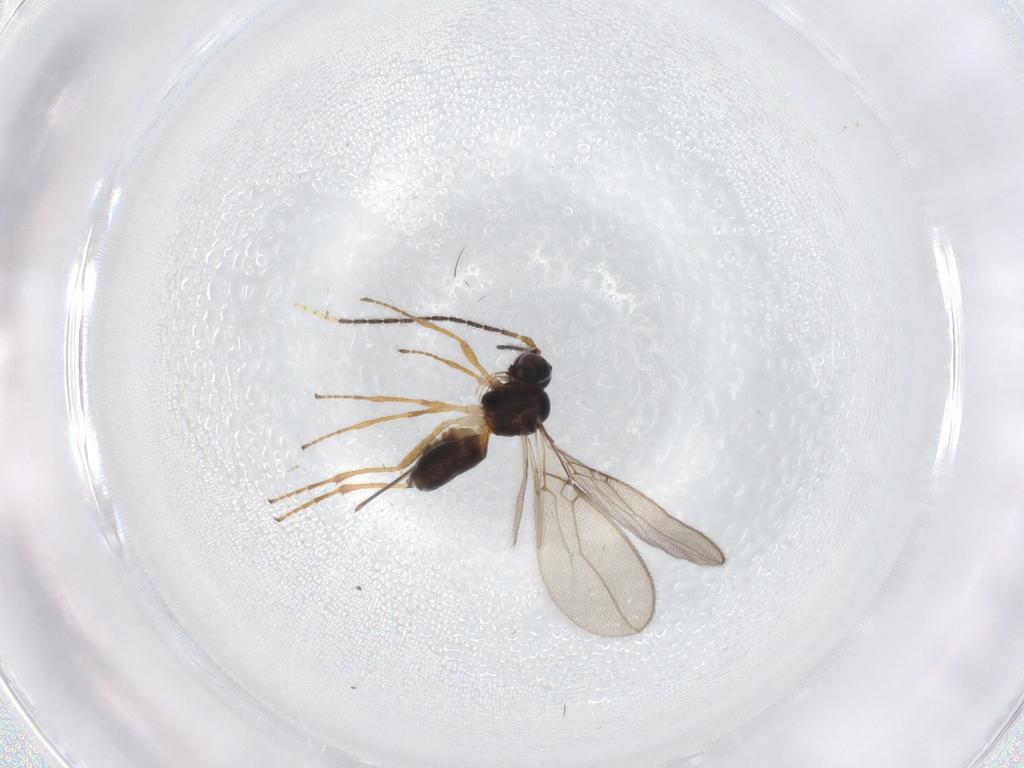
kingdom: Animalia
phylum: Arthropoda
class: Insecta
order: Hymenoptera
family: Braconidae
